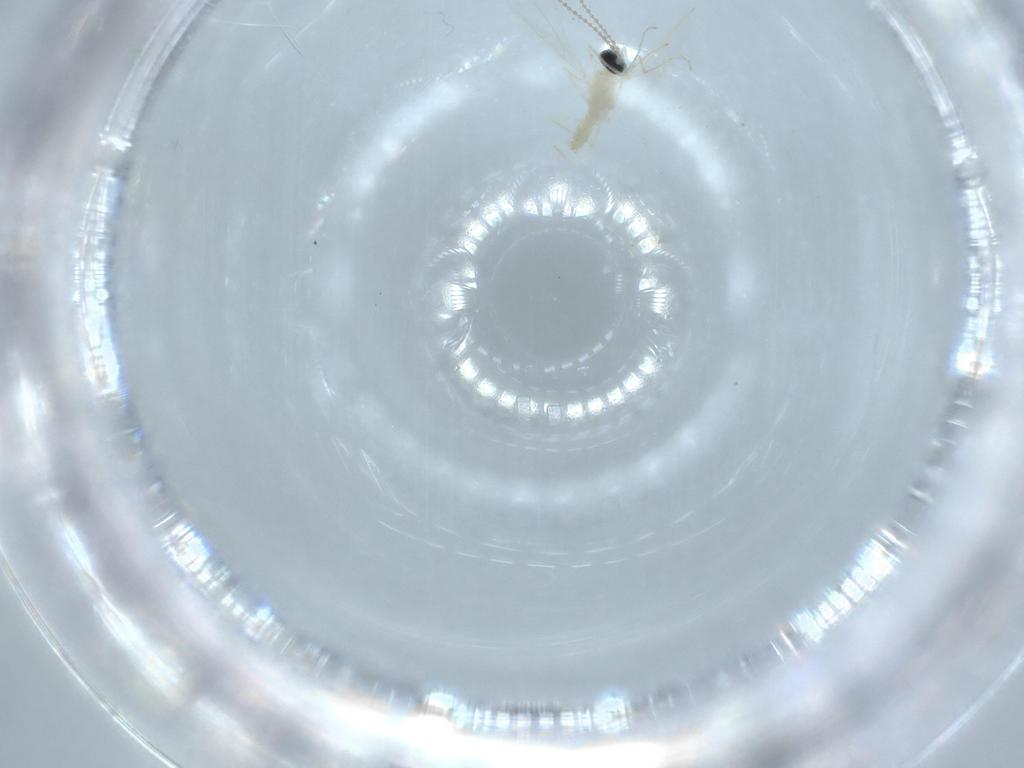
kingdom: Animalia
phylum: Arthropoda
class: Insecta
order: Diptera
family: Cecidomyiidae
